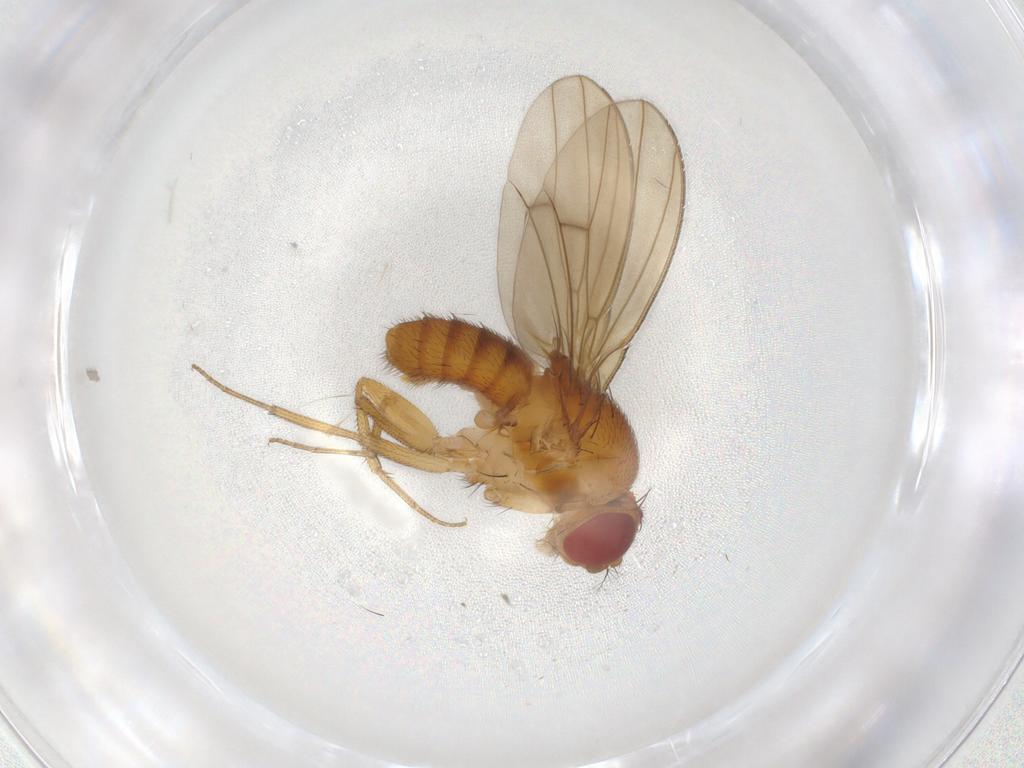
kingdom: Animalia
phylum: Arthropoda
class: Insecta
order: Diptera
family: Drosophilidae
